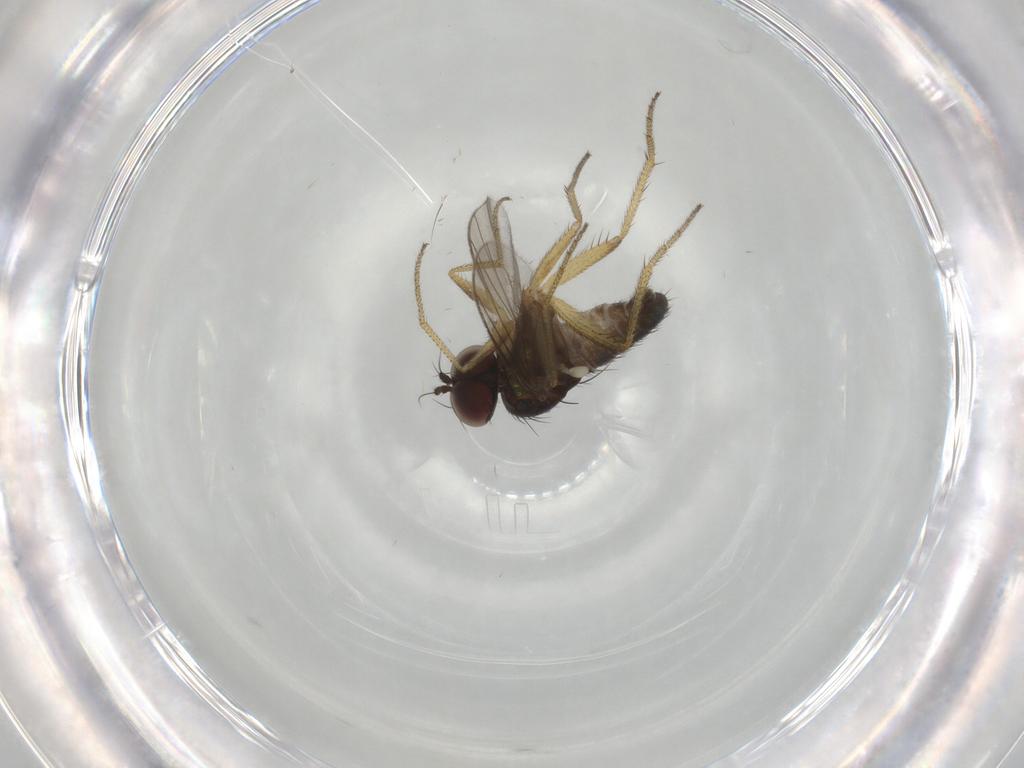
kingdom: Animalia
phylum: Arthropoda
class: Insecta
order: Diptera
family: Dolichopodidae
